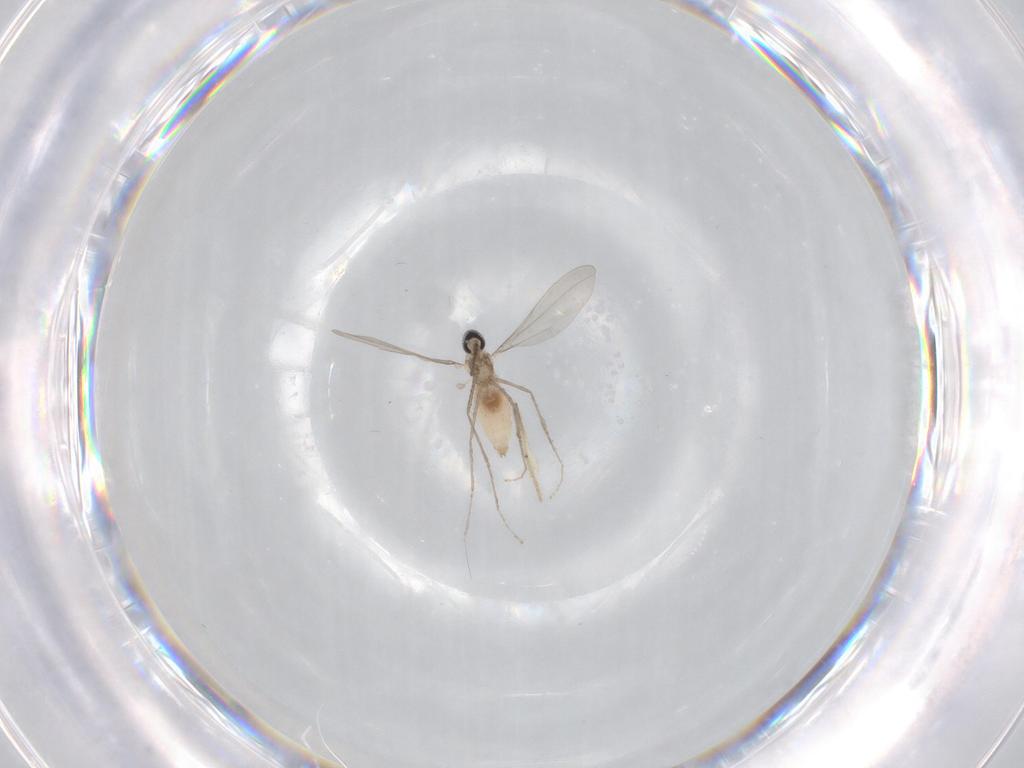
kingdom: Animalia
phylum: Arthropoda
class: Insecta
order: Diptera
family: Cecidomyiidae
